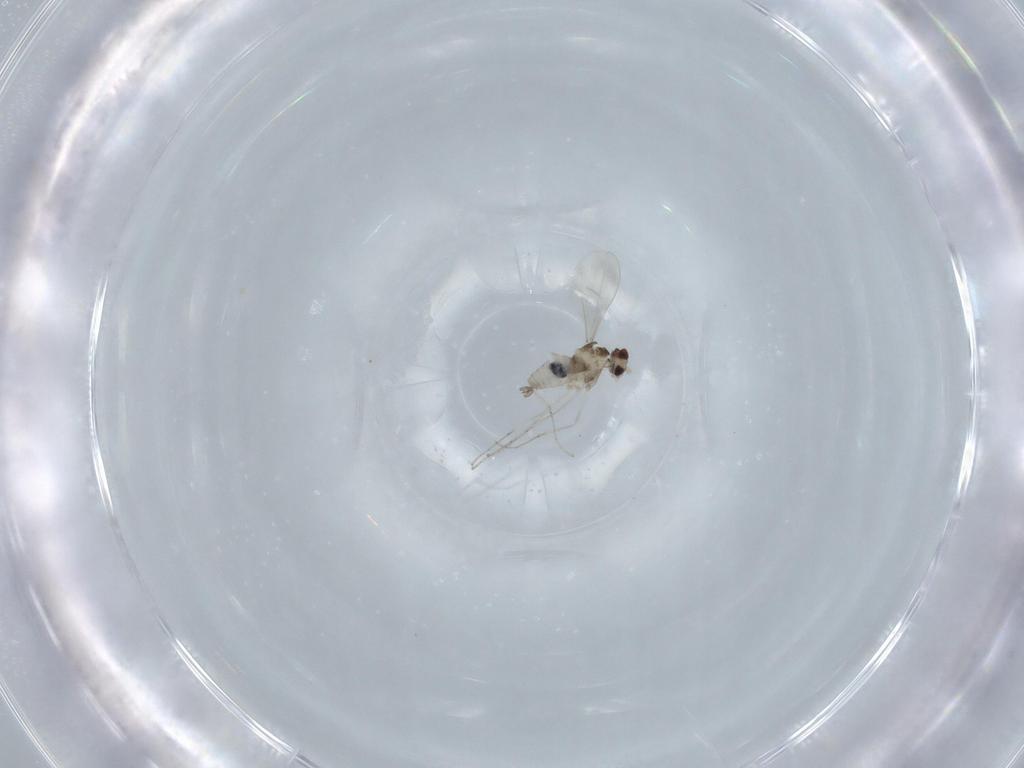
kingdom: Animalia
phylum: Arthropoda
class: Insecta
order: Diptera
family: Cecidomyiidae
